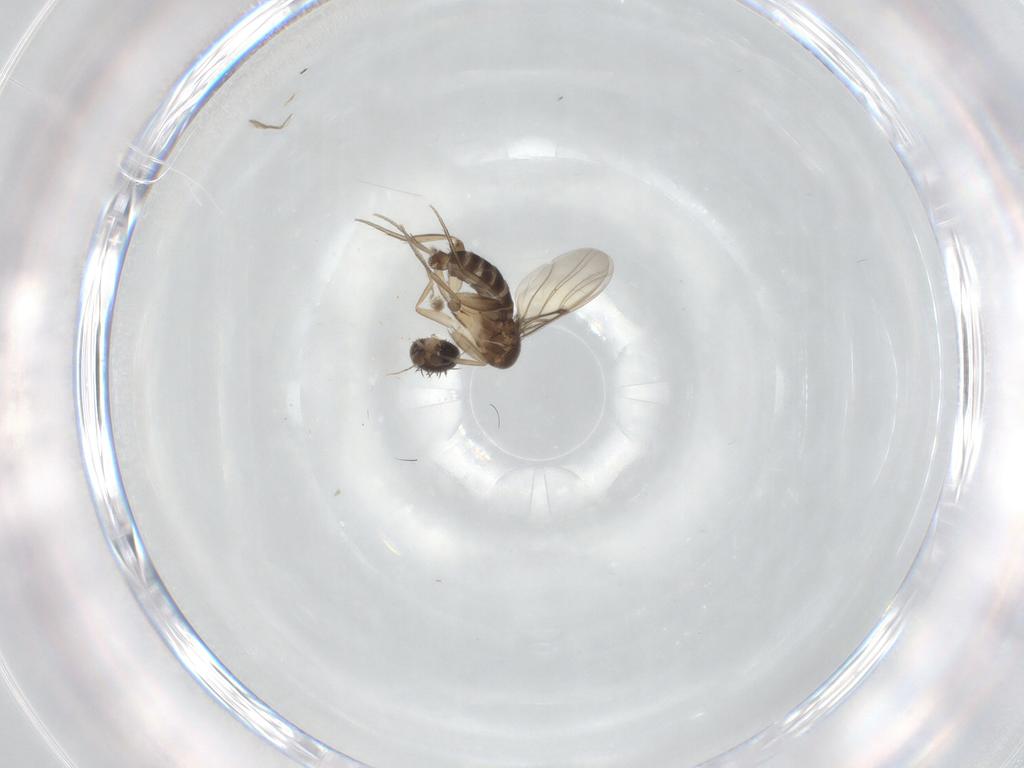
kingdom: Animalia
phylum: Arthropoda
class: Insecta
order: Diptera
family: Phoridae
